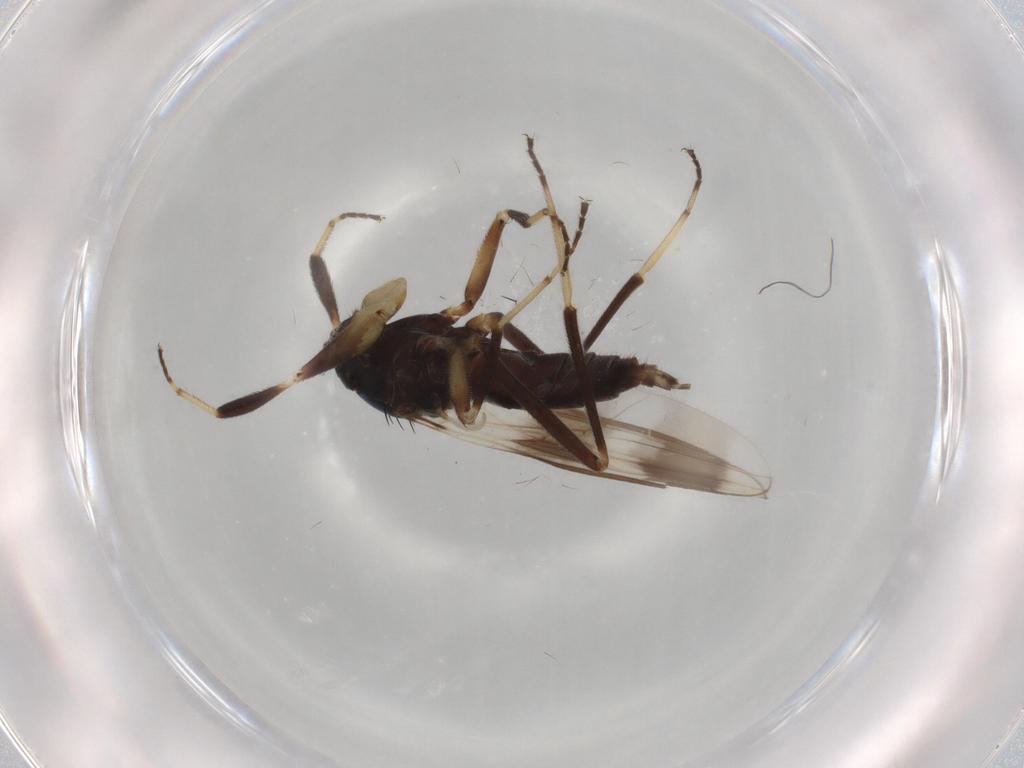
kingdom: Animalia
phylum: Arthropoda
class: Insecta
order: Diptera
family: Hybotidae
